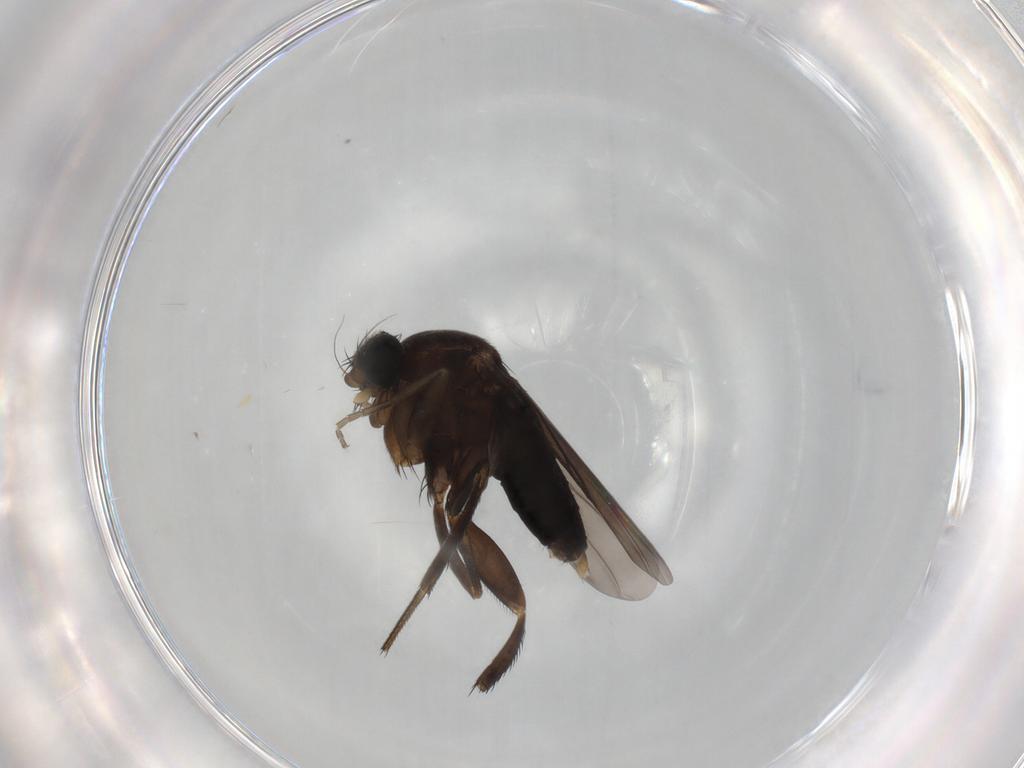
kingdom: Animalia
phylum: Arthropoda
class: Insecta
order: Diptera
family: Phoridae
